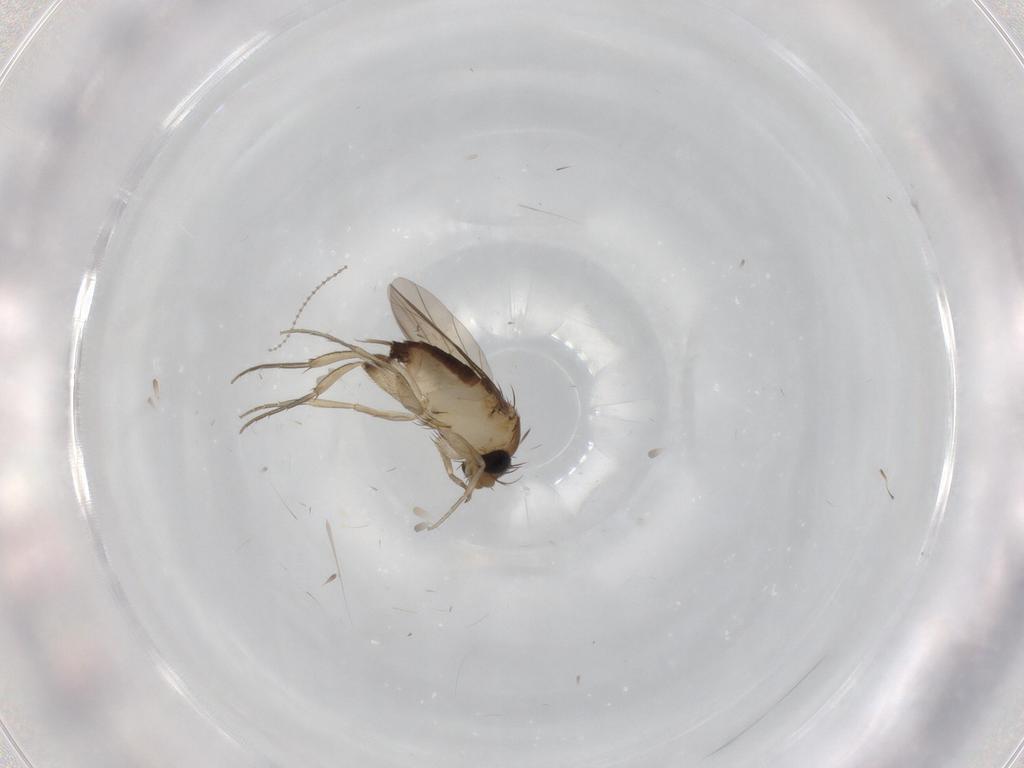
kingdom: Animalia
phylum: Arthropoda
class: Insecta
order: Diptera
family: Phoridae
